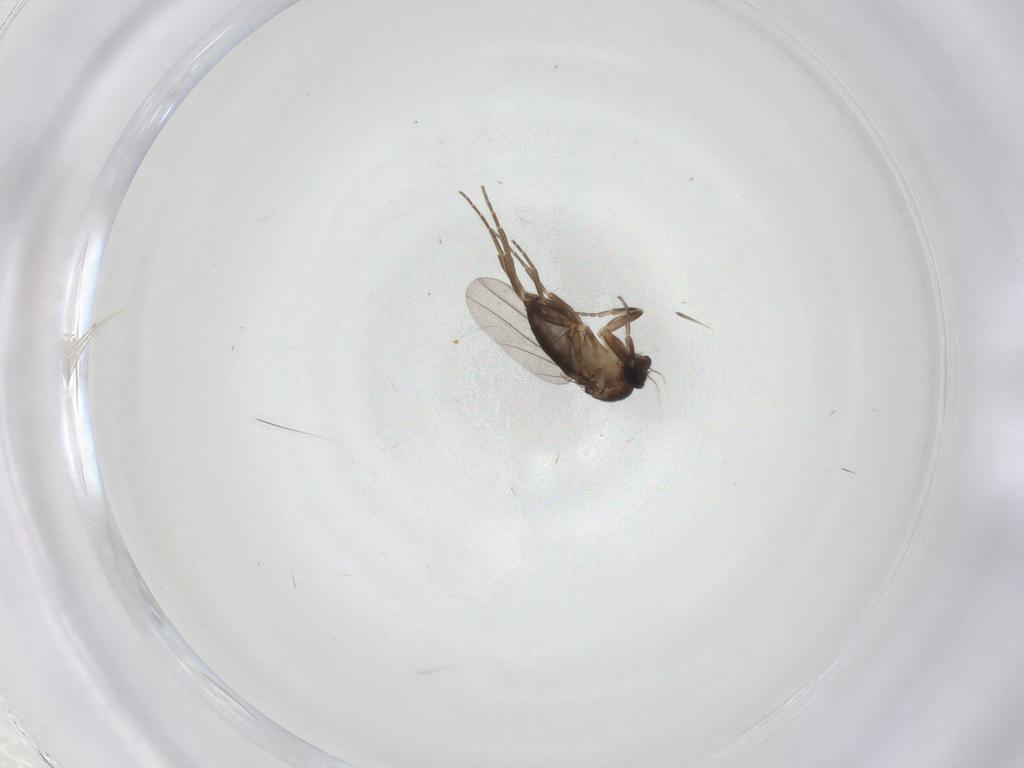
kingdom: Animalia
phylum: Arthropoda
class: Insecta
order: Diptera
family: Phoridae
